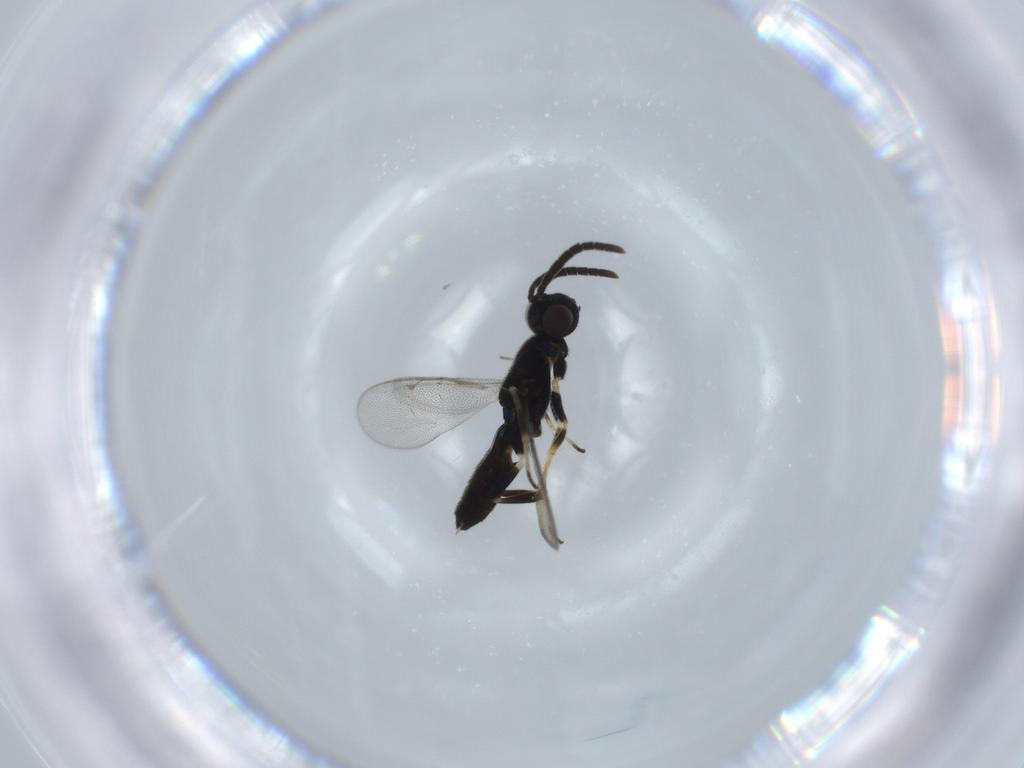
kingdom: Animalia
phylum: Arthropoda
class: Insecta
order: Hymenoptera
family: Eupelmidae
